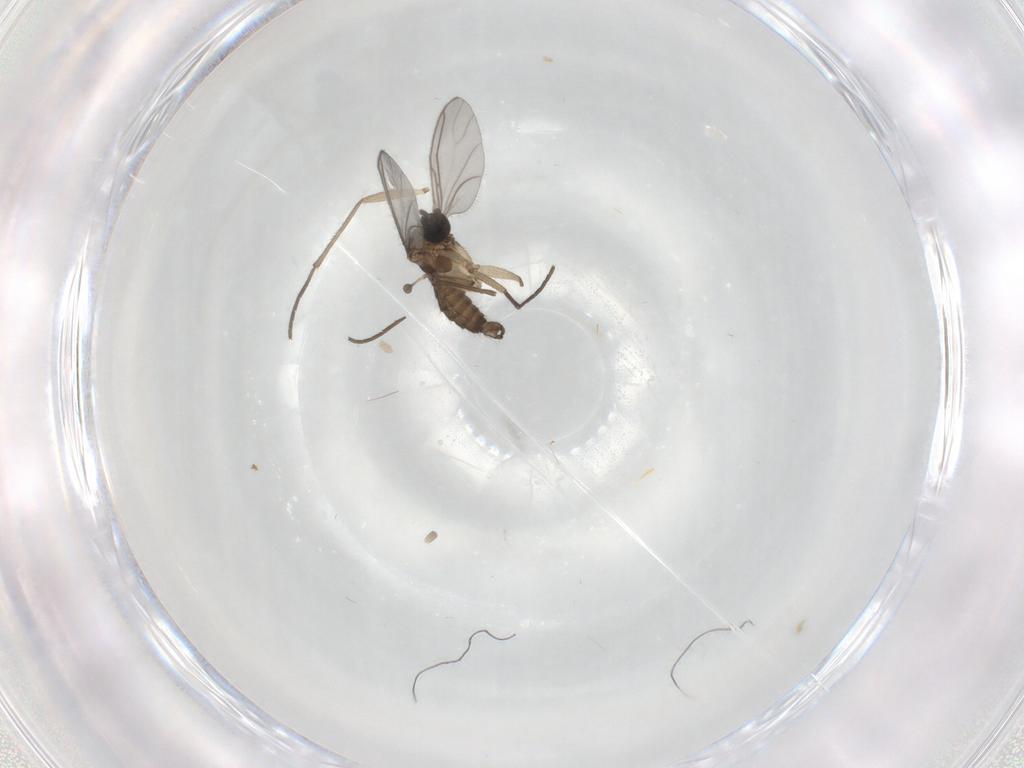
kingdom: Animalia
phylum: Arthropoda
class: Insecta
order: Diptera
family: Sciaridae
